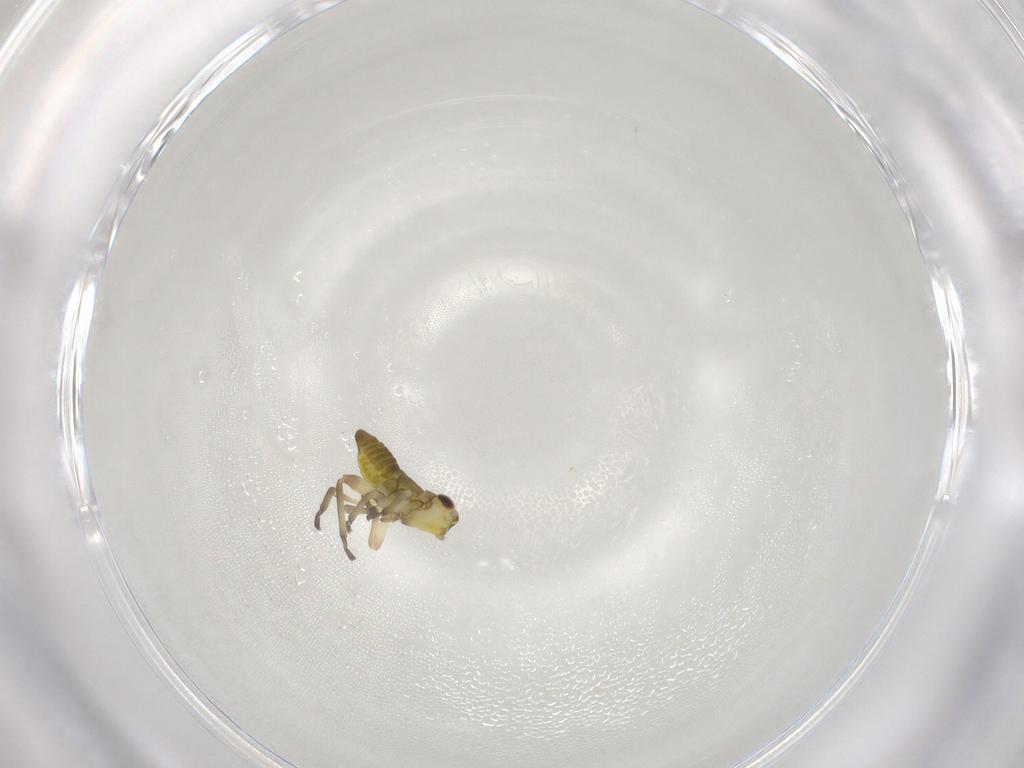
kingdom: Animalia
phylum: Arthropoda
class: Insecta
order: Hemiptera
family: Cicadellidae
